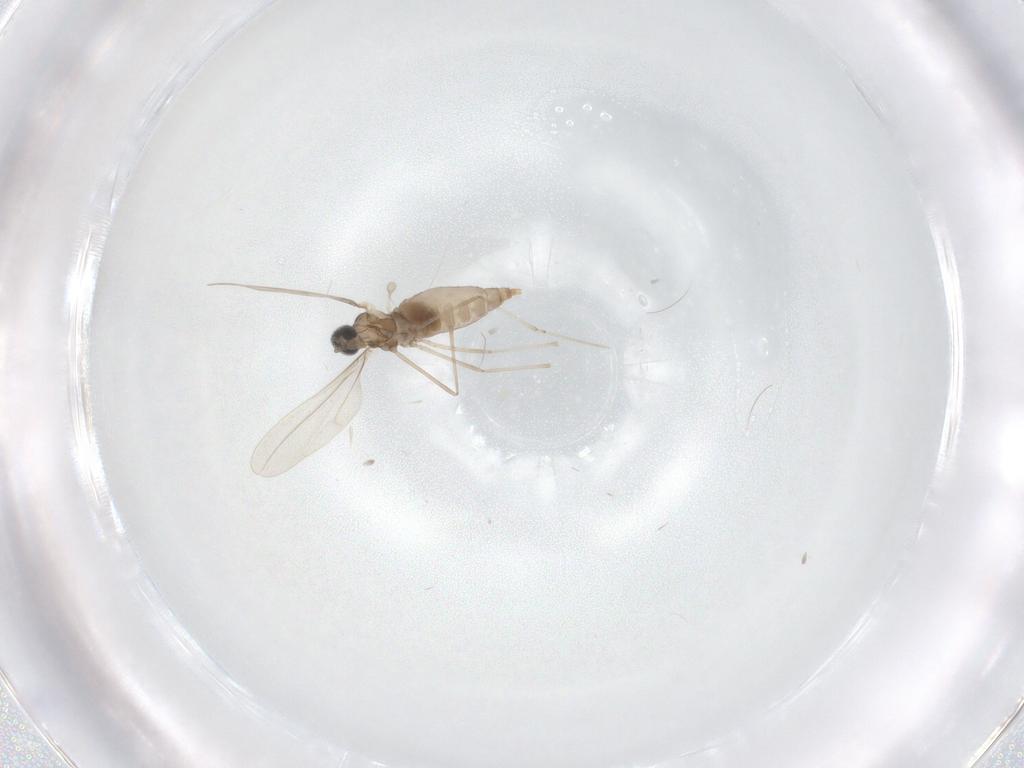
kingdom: Animalia
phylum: Arthropoda
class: Insecta
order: Diptera
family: Cecidomyiidae
